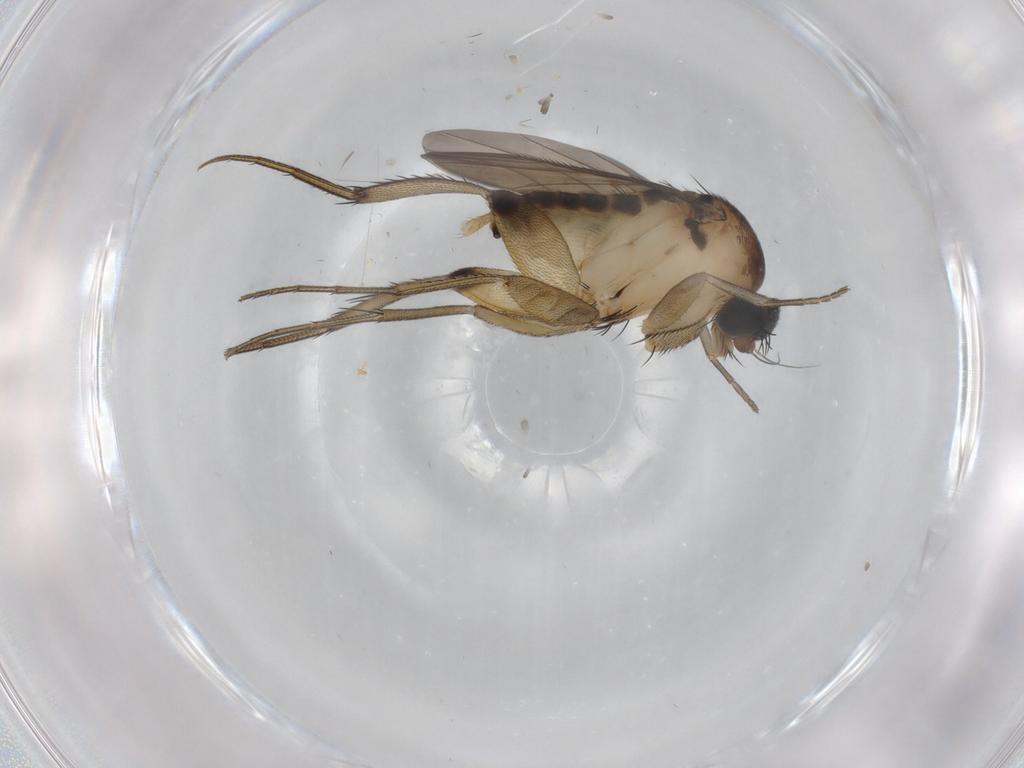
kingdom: Animalia
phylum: Arthropoda
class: Insecta
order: Diptera
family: Phoridae
